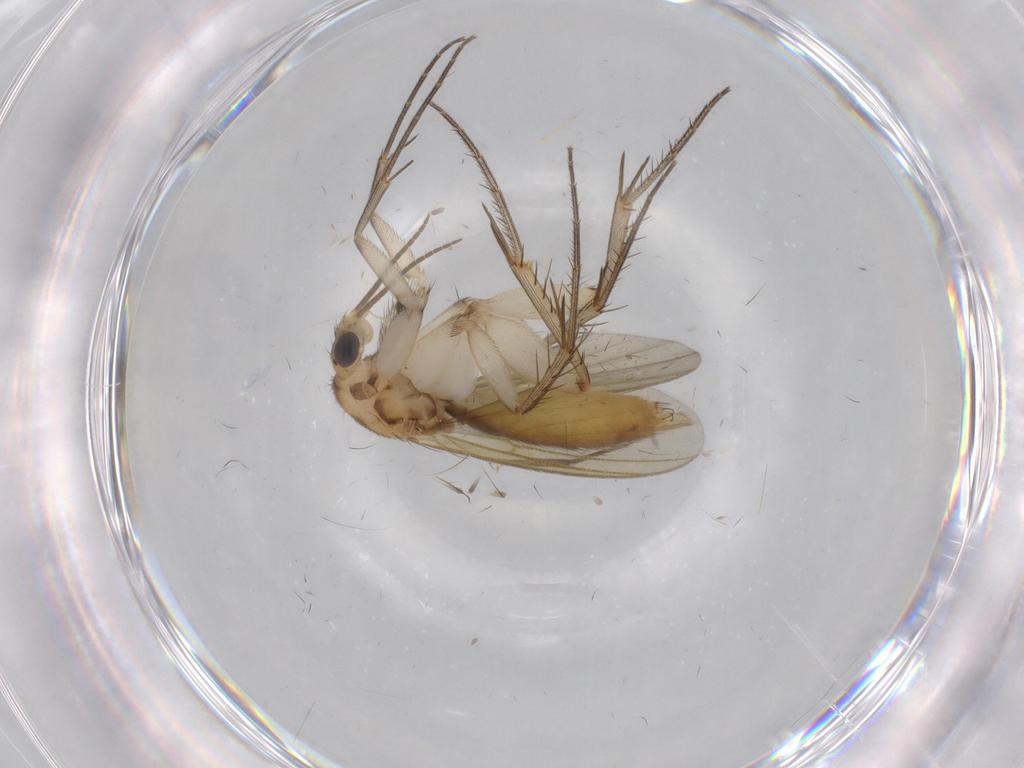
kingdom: Animalia
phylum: Arthropoda
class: Insecta
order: Diptera
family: Mycetophilidae
